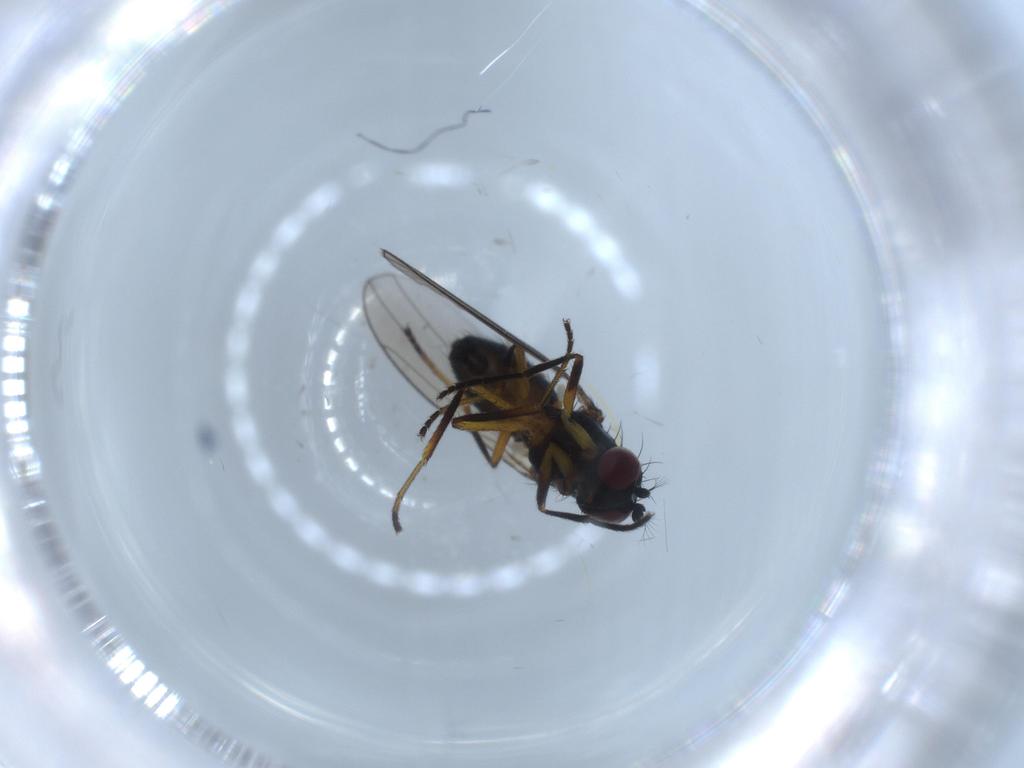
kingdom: Animalia
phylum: Arthropoda
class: Insecta
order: Diptera
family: Ephydridae
